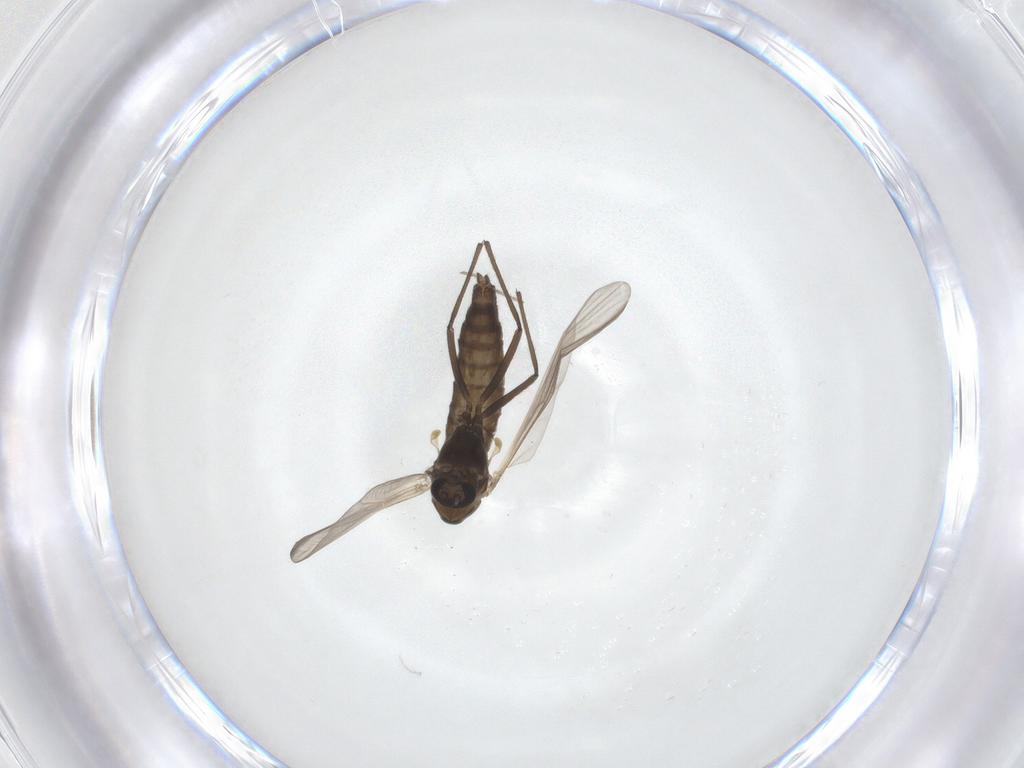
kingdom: Animalia
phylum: Arthropoda
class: Insecta
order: Diptera
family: Chironomidae
